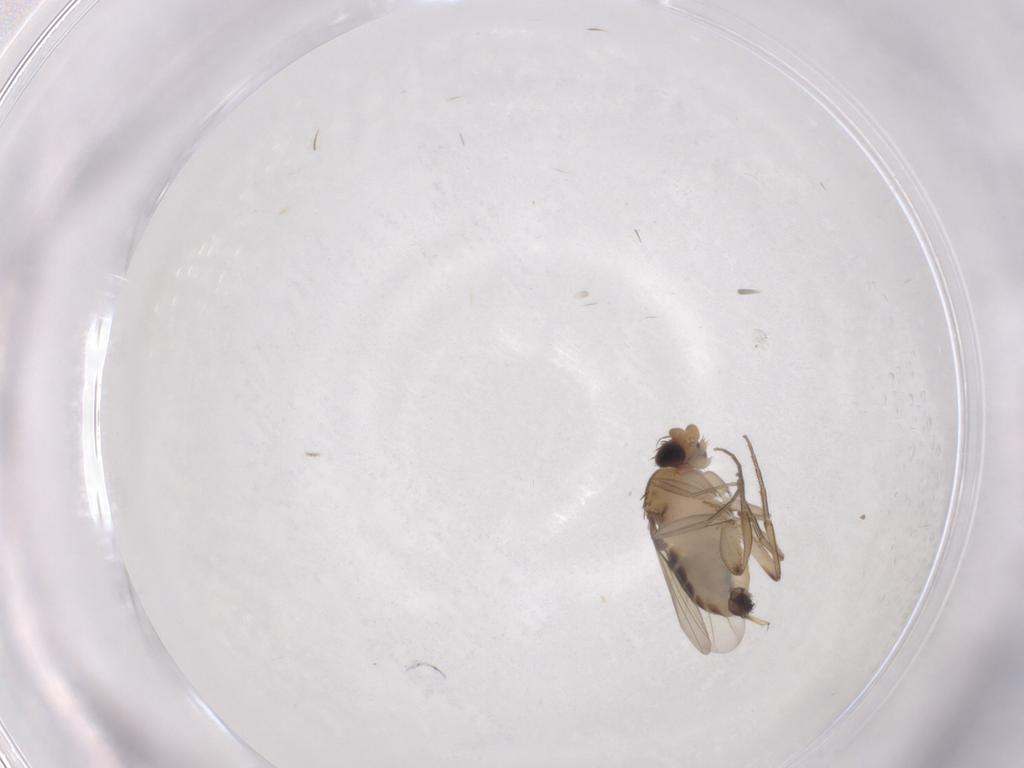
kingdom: Animalia
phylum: Arthropoda
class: Insecta
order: Diptera
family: Phoridae
